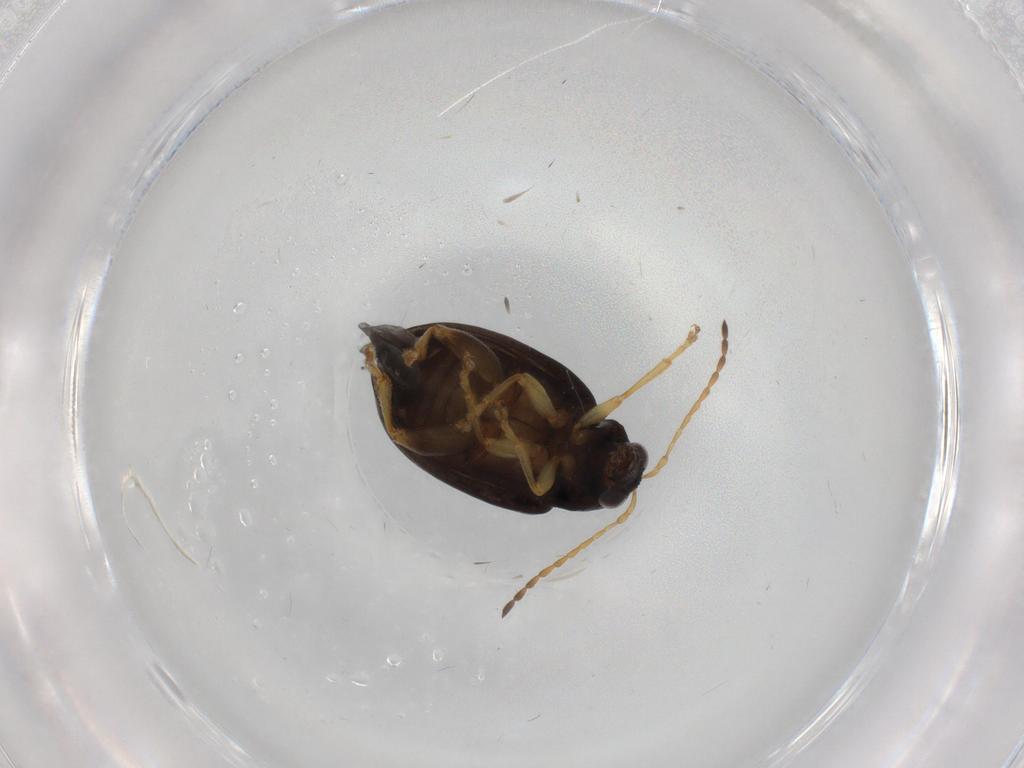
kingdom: Animalia
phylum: Arthropoda
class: Insecta
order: Coleoptera
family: Chrysomelidae
